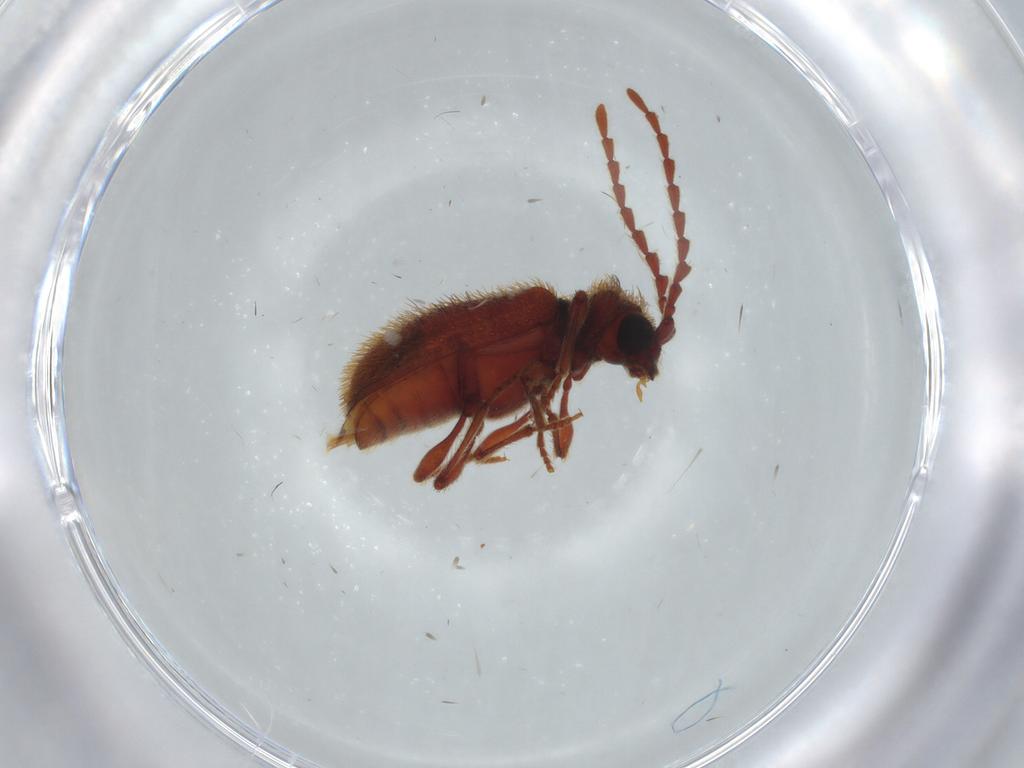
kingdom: Animalia
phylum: Arthropoda
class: Insecta
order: Coleoptera
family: Ptinidae
